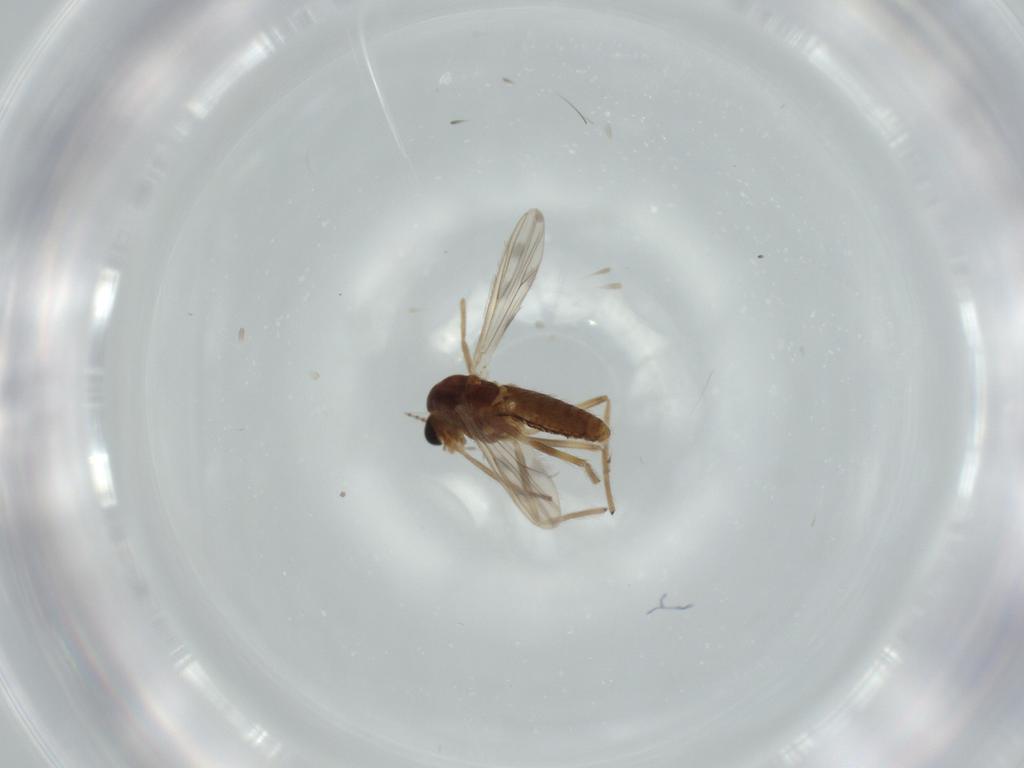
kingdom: Animalia
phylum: Arthropoda
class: Insecta
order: Diptera
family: Chironomidae
